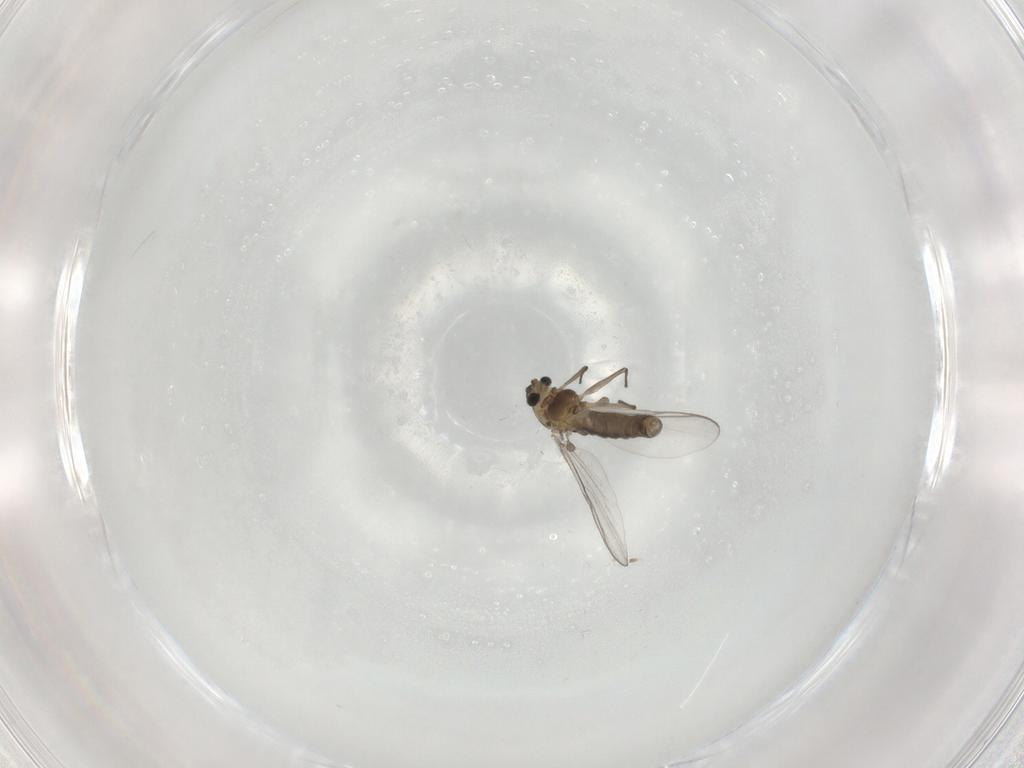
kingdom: Animalia
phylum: Arthropoda
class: Insecta
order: Diptera
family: Chironomidae
